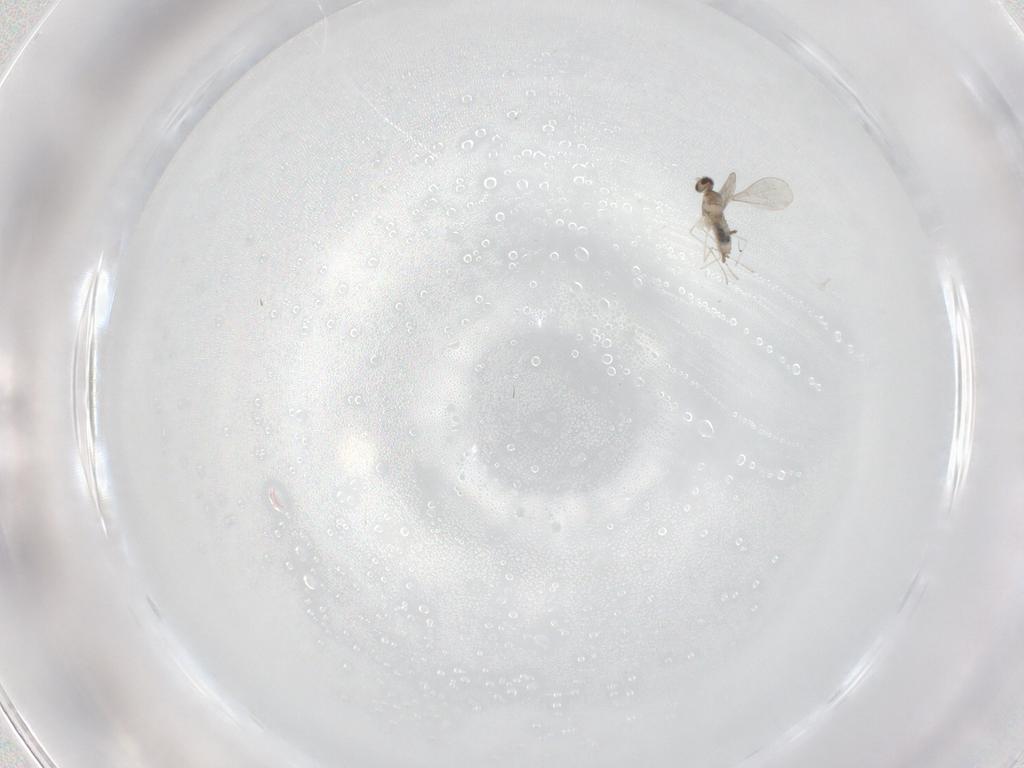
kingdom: Animalia
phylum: Arthropoda
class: Insecta
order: Diptera
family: Cecidomyiidae
